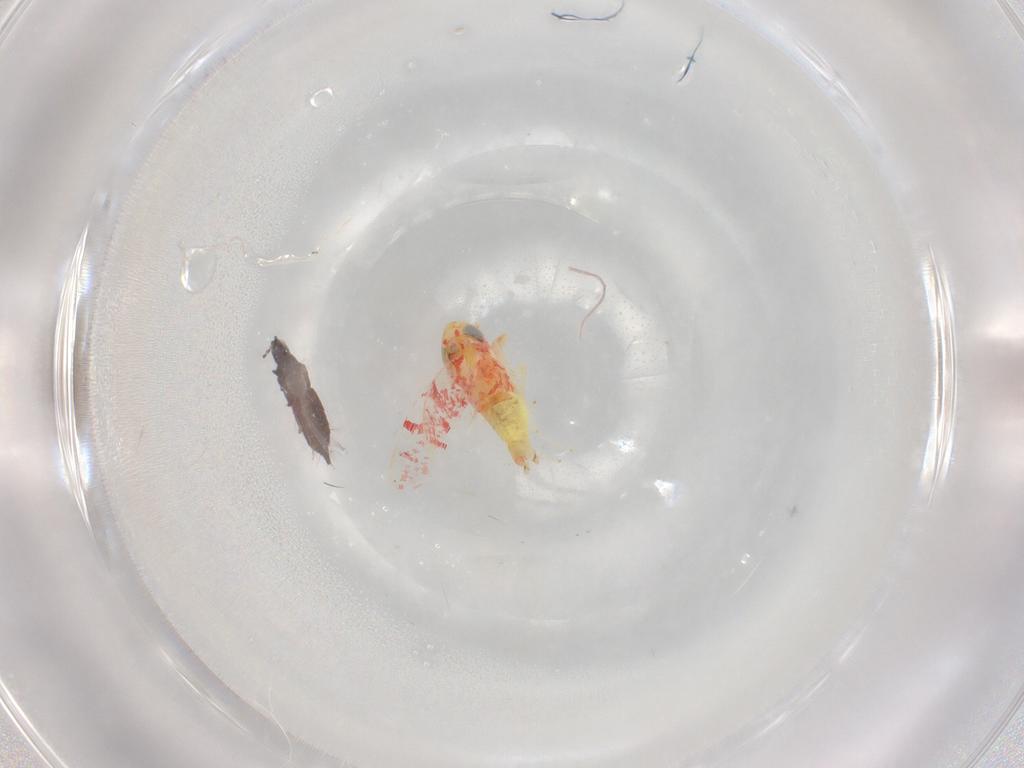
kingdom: Animalia
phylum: Arthropoda
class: Insecta
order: Hemiptera
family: Cicadellidae
